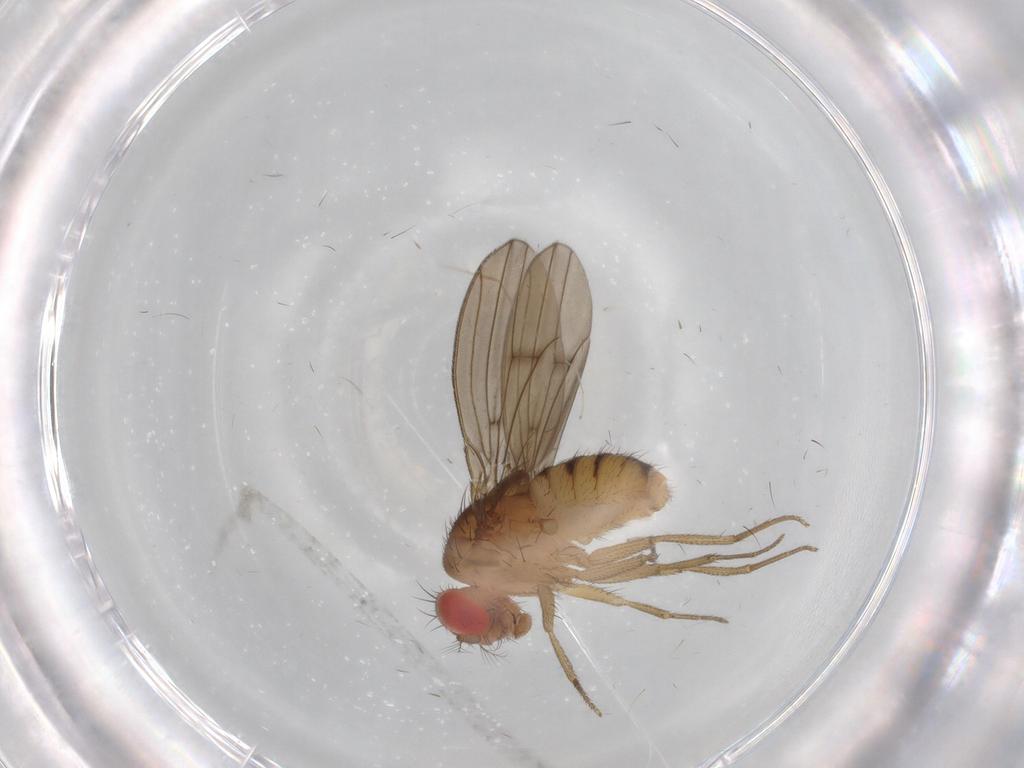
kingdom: Animalia
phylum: Arthropoda
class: Insecta
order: Diptera
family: Drosophilidae
